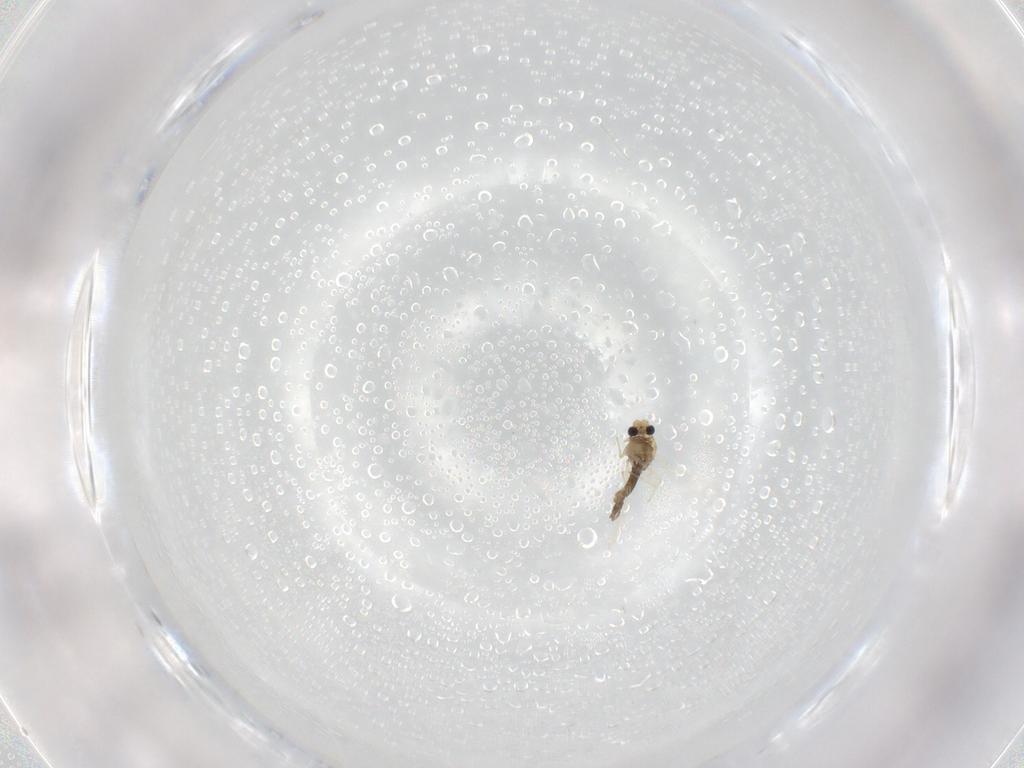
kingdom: Animalia
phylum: Arthropoda
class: Insecta
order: Diptera
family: Chironomidae
